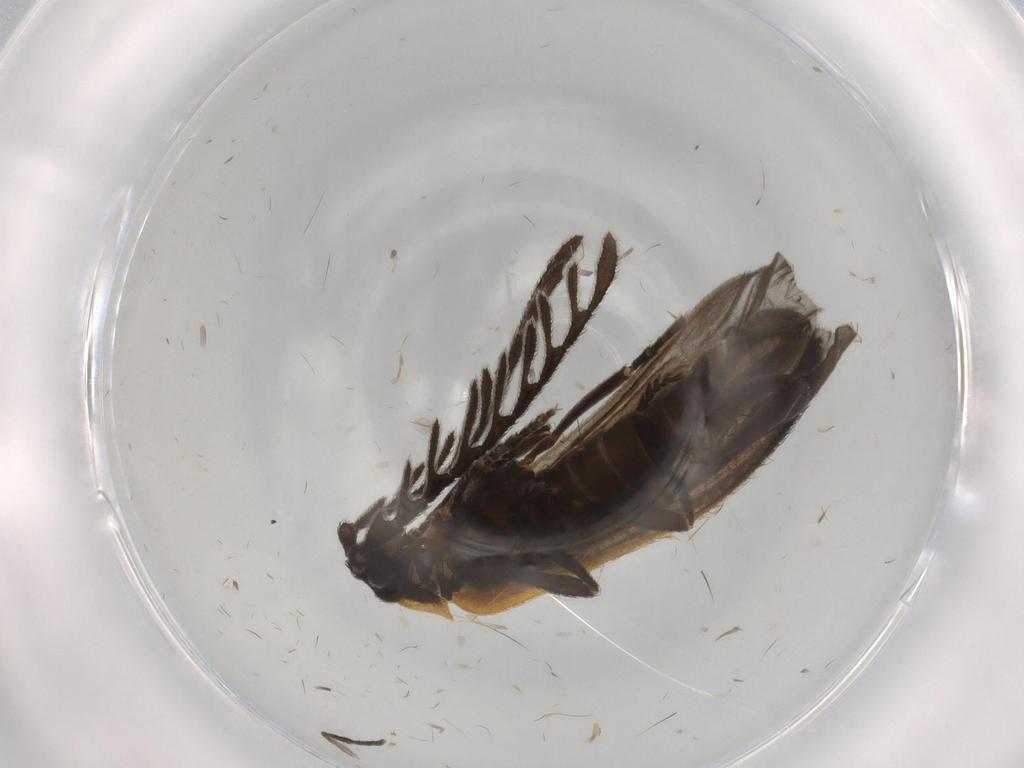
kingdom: Animalia
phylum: Arthropoda
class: Insecta
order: Coleoptera
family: Lycidae
